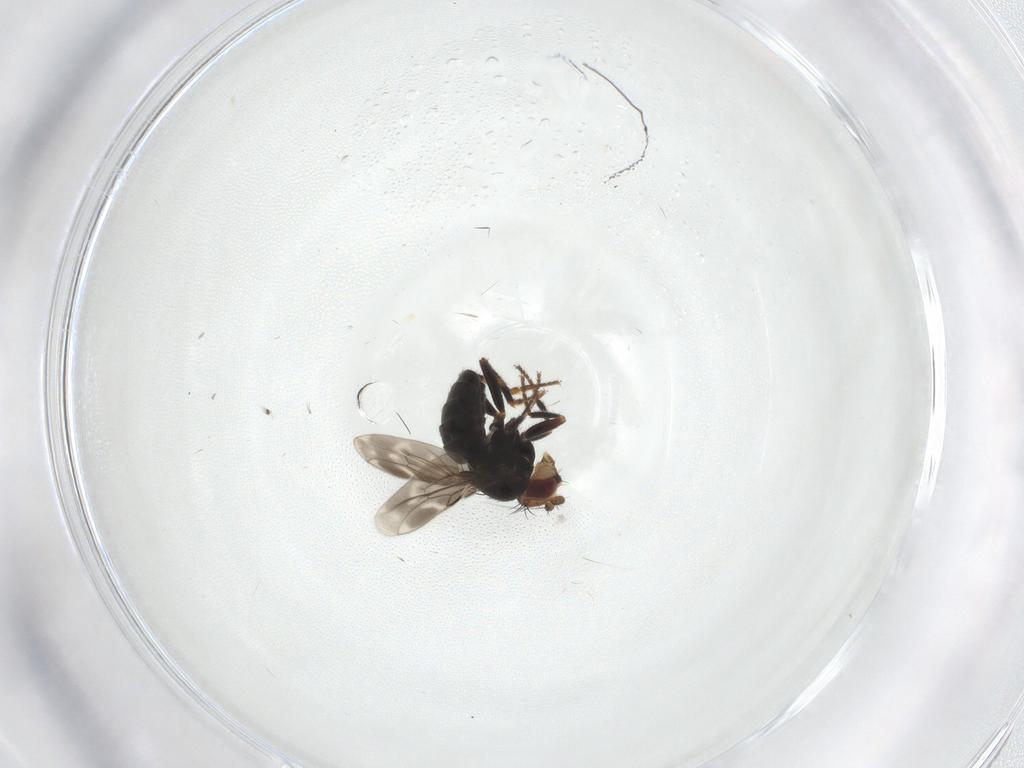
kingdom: Animalia
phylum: Arthropoda
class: Insecta
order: Diptera
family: Sphaeroceridae
